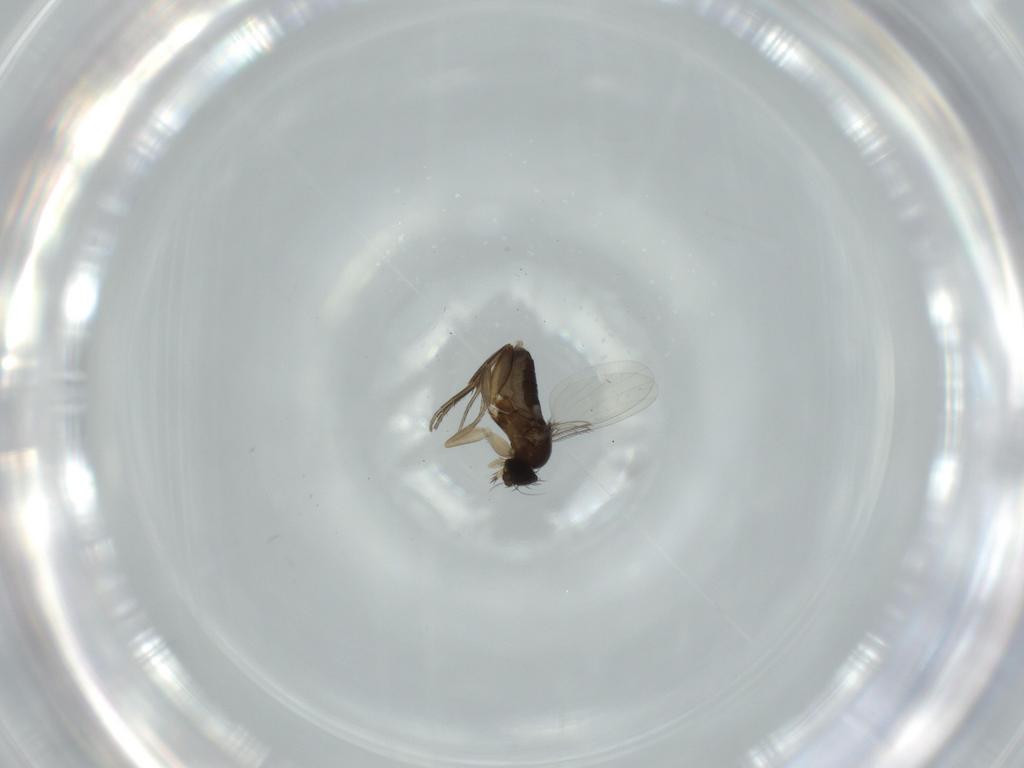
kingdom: Animalia
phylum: Arthropoda
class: Insecta
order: Diptera
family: Phoridae
